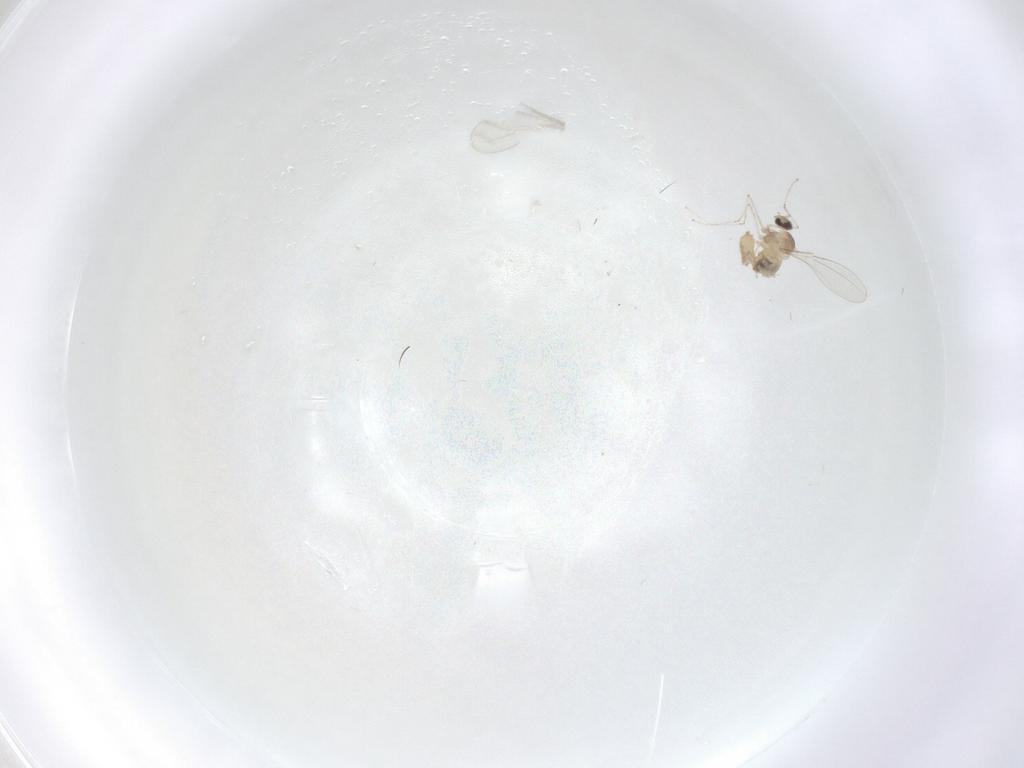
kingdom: Animalia
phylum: Arthropoda
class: Insecta
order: Diptera
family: Cecidomyiidae
